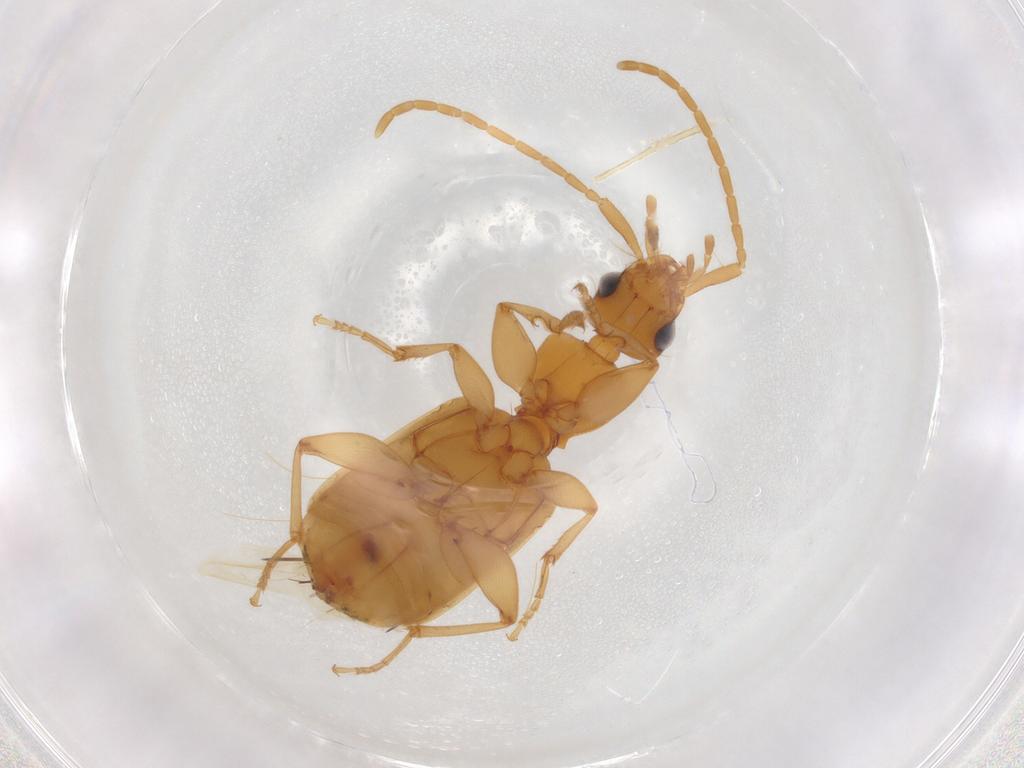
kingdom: Animalia
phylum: Arthropoda
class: Insecta
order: Coleoptera
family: Carabidae
